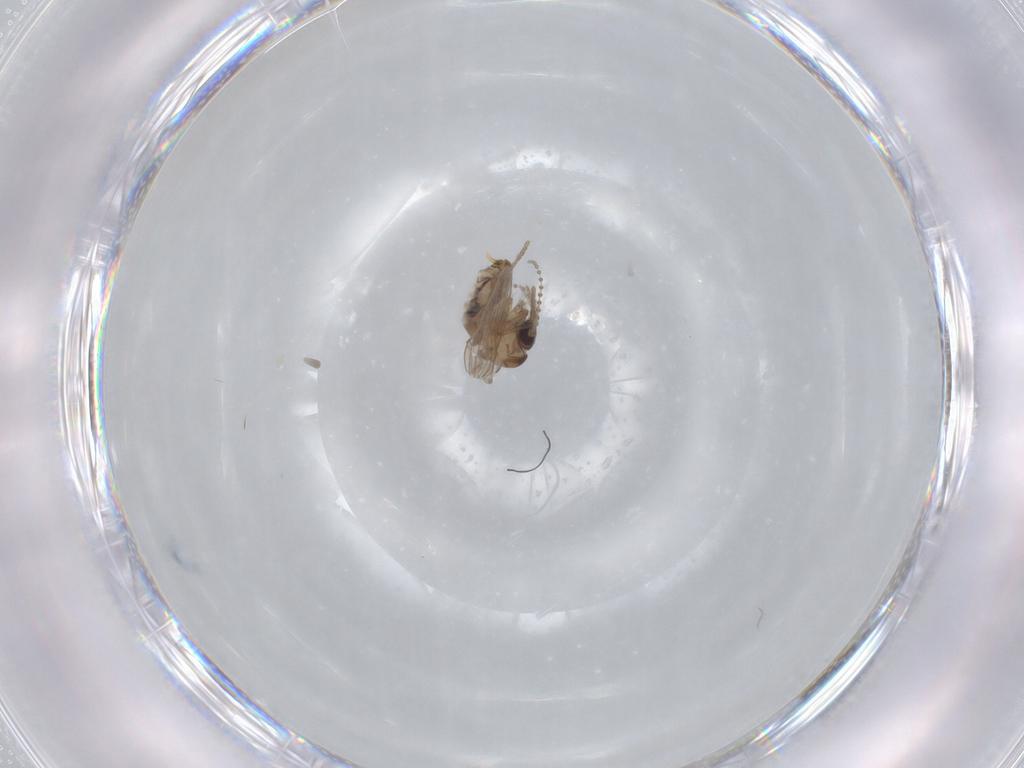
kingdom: Animalia
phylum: Arthropoda
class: Insecta
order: Diptera
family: Psychodidae
